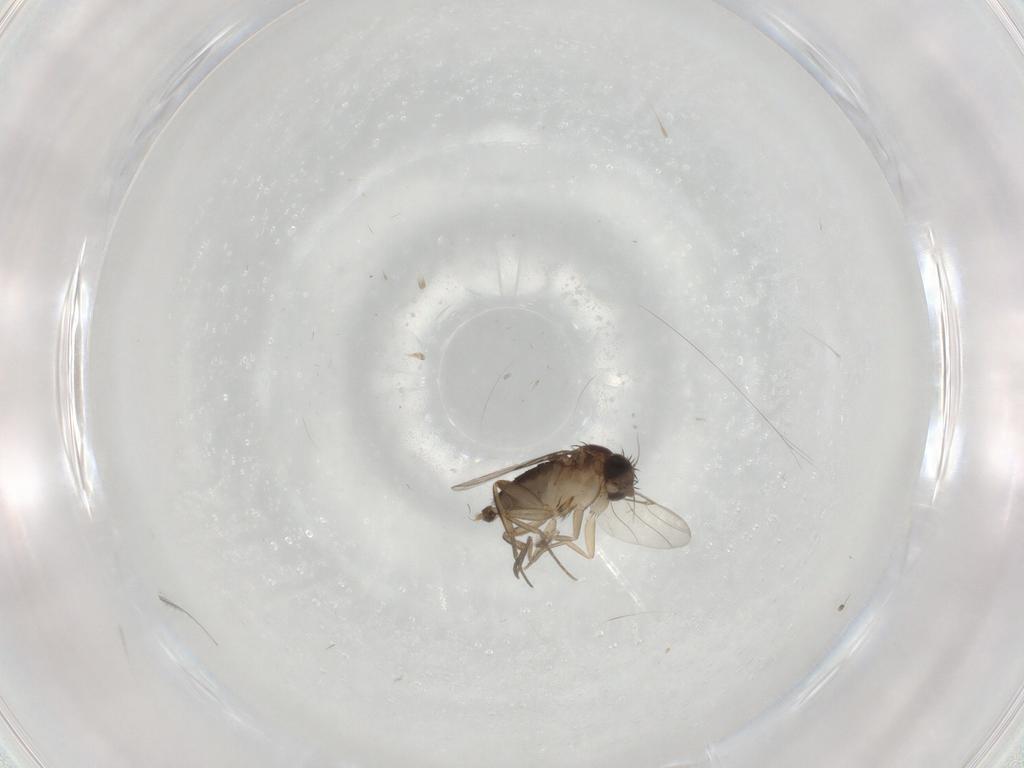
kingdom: Animalia
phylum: Arthropoda
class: Insecta
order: Diptera
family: Phoridae
